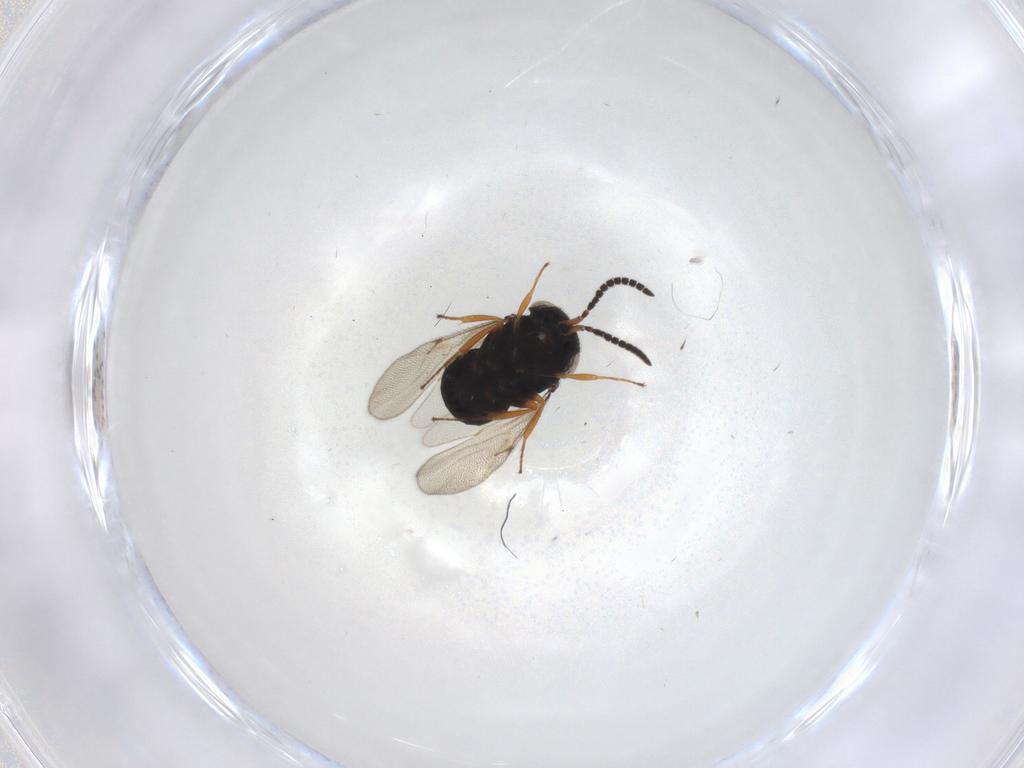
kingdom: Animalia
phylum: Arthropoda
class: Insecta
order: Hymenoptera
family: Scelionidae
